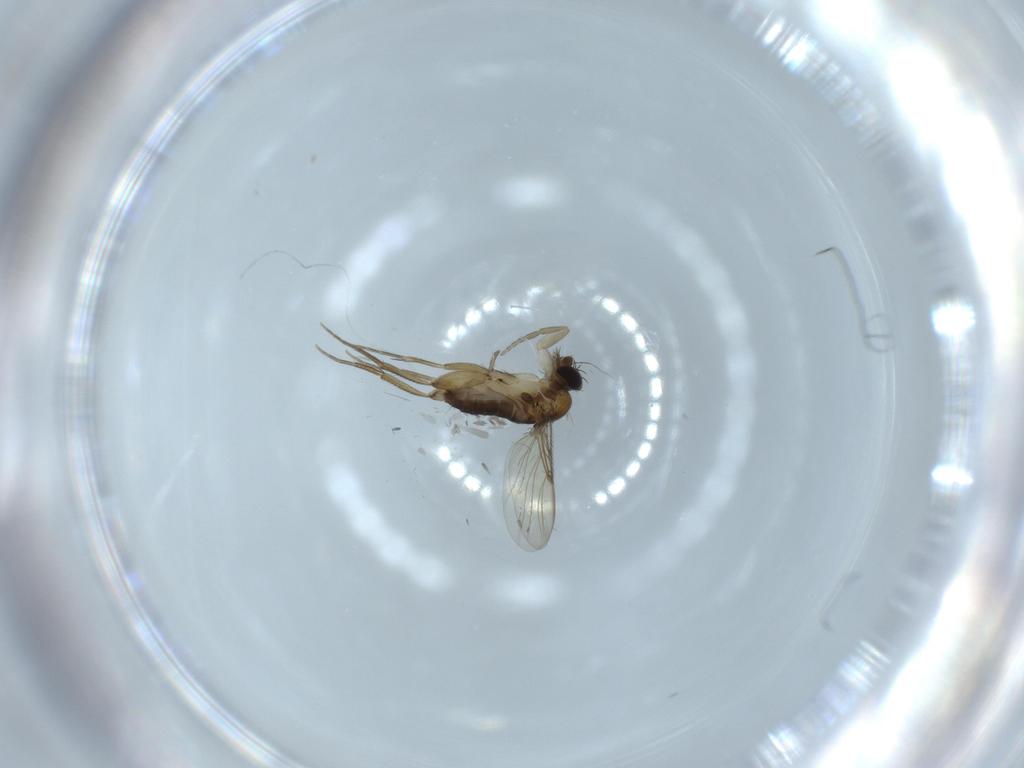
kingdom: Animalia
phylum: Arthropoda
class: Insecta
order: Diptera
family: Phoridae
